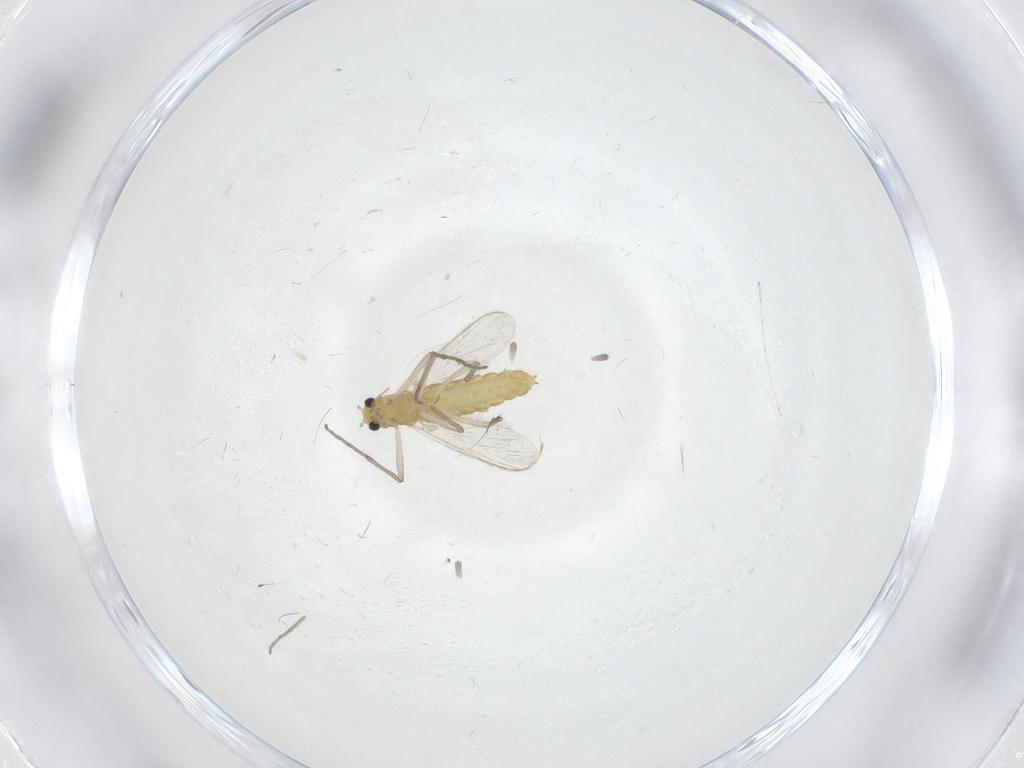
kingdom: Animalia
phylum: Arthropoda
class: Insecta
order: Diptera
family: Chironomidae
